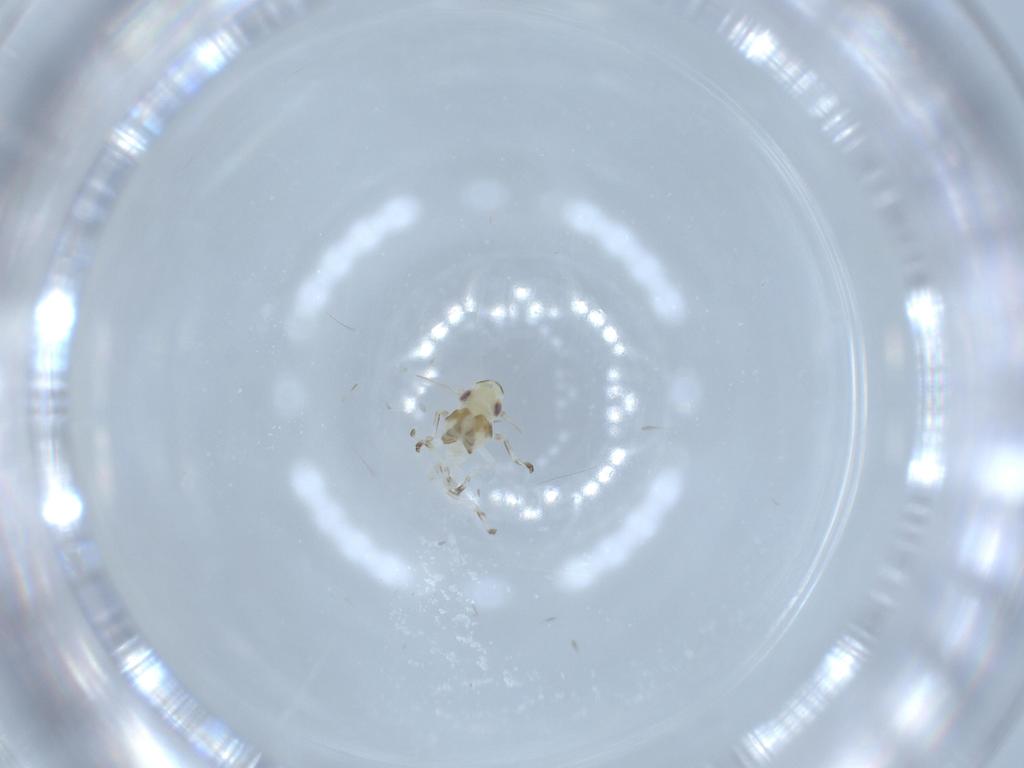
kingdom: Animalia
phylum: Arthropoda
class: Insecta
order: Hemiptera
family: Cicadellidae
